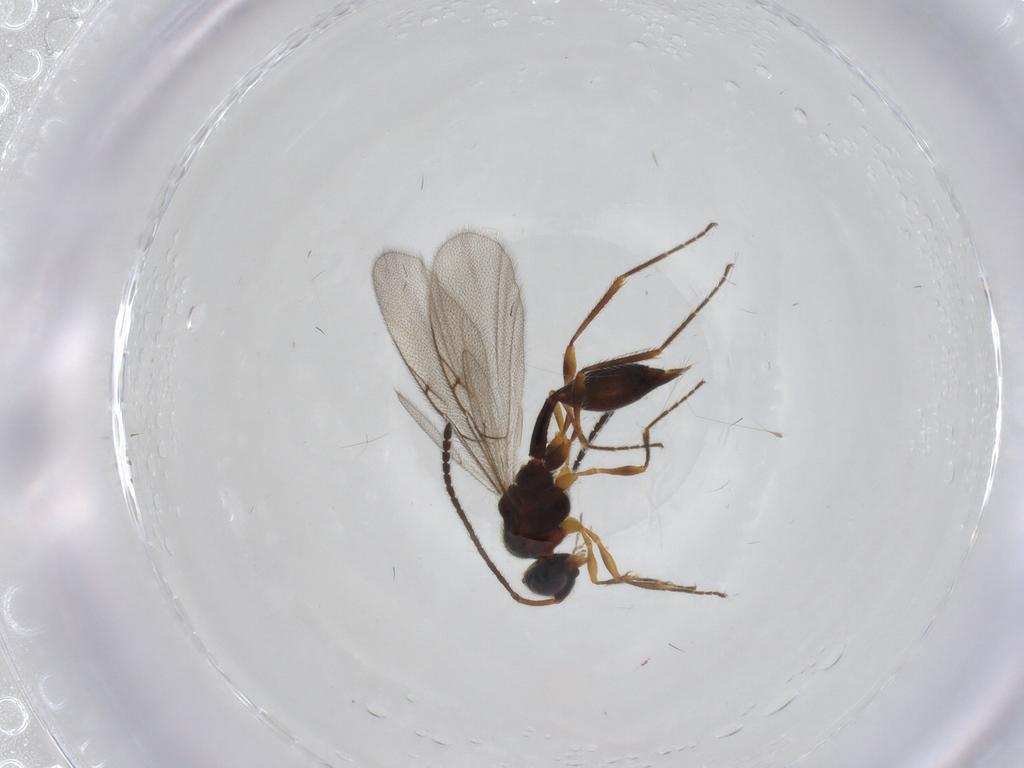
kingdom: Animalia
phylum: Arthropoda
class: Insecta
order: Hymenoptera
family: Diapriidae
